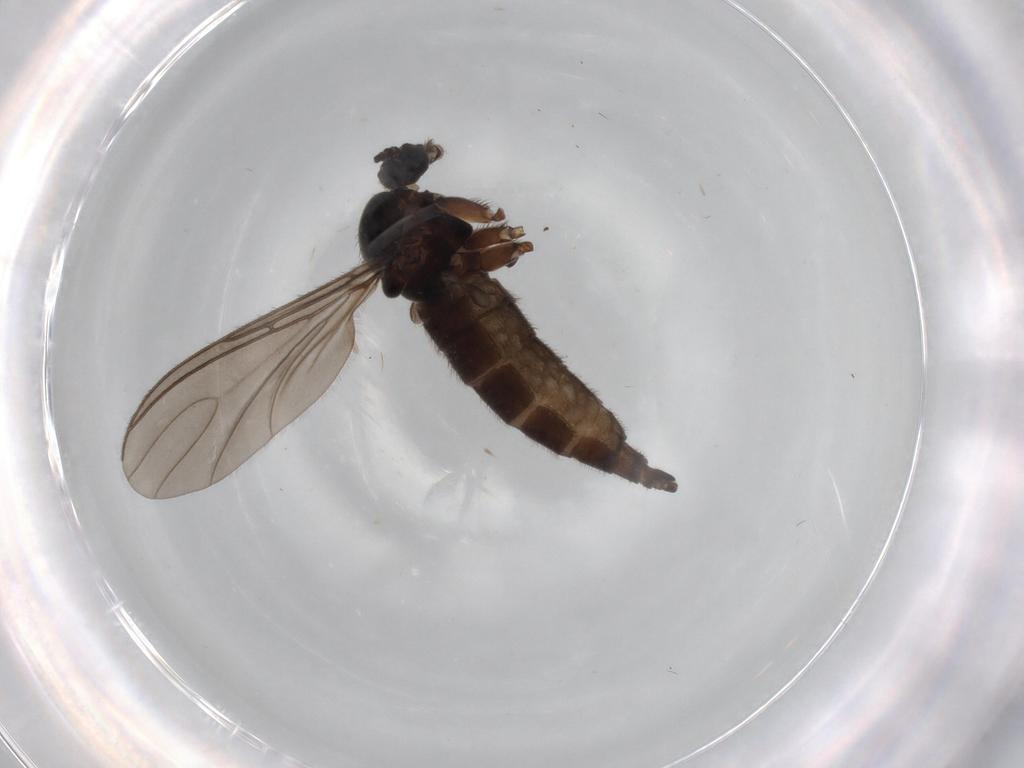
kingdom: Animalia
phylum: Arthropoda
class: Insecta
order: Diptera
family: Sciaridae
